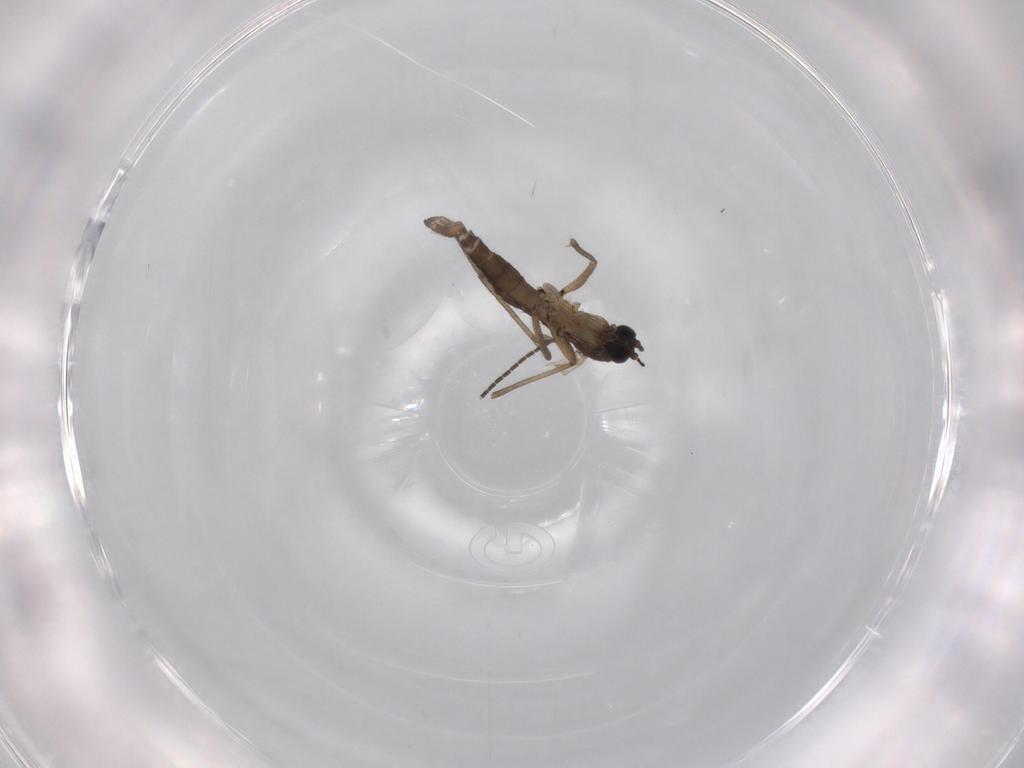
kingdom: Animalia
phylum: Arthropoda
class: Insecta
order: Diptera
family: Sciaridae
